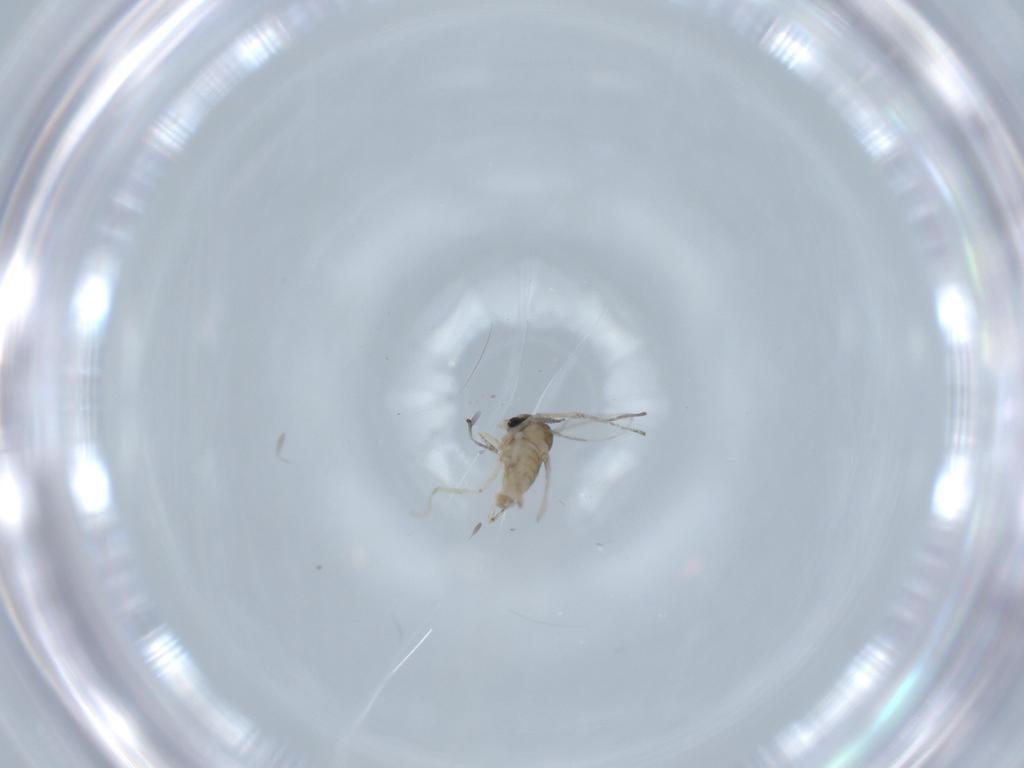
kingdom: Animalia
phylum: Arthropoda
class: Insecta
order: Diptera
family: Cecidomyiidae
